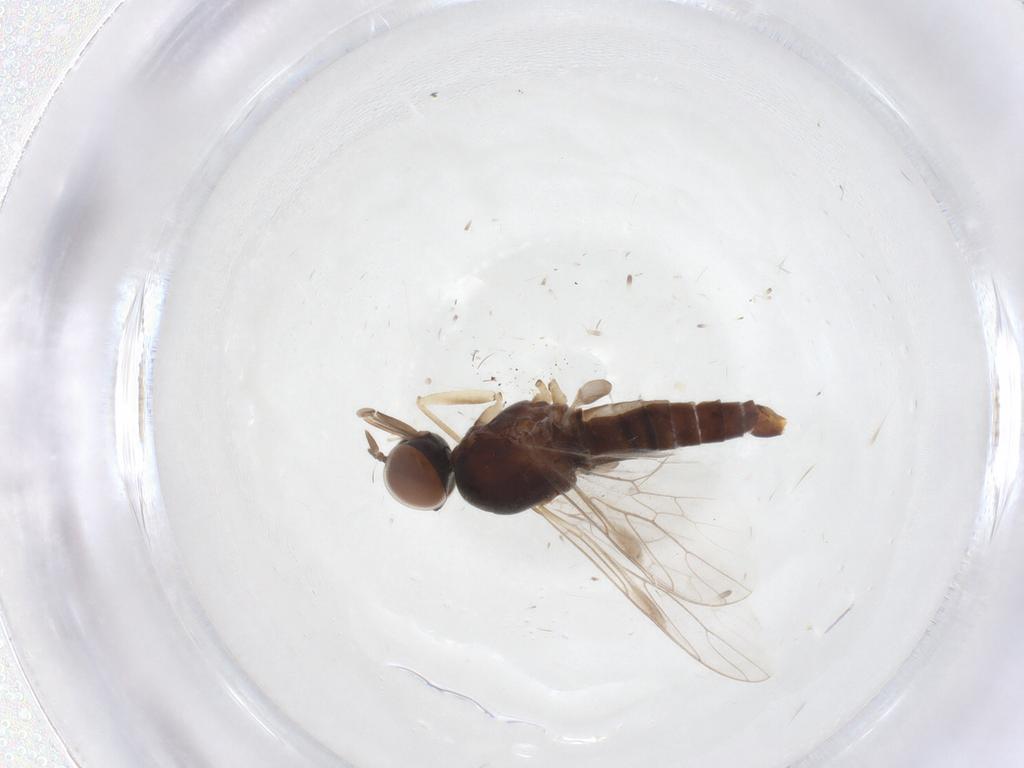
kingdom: Animalia
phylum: Arthropoda
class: Insecta
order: Diptera
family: Scenopinidae
